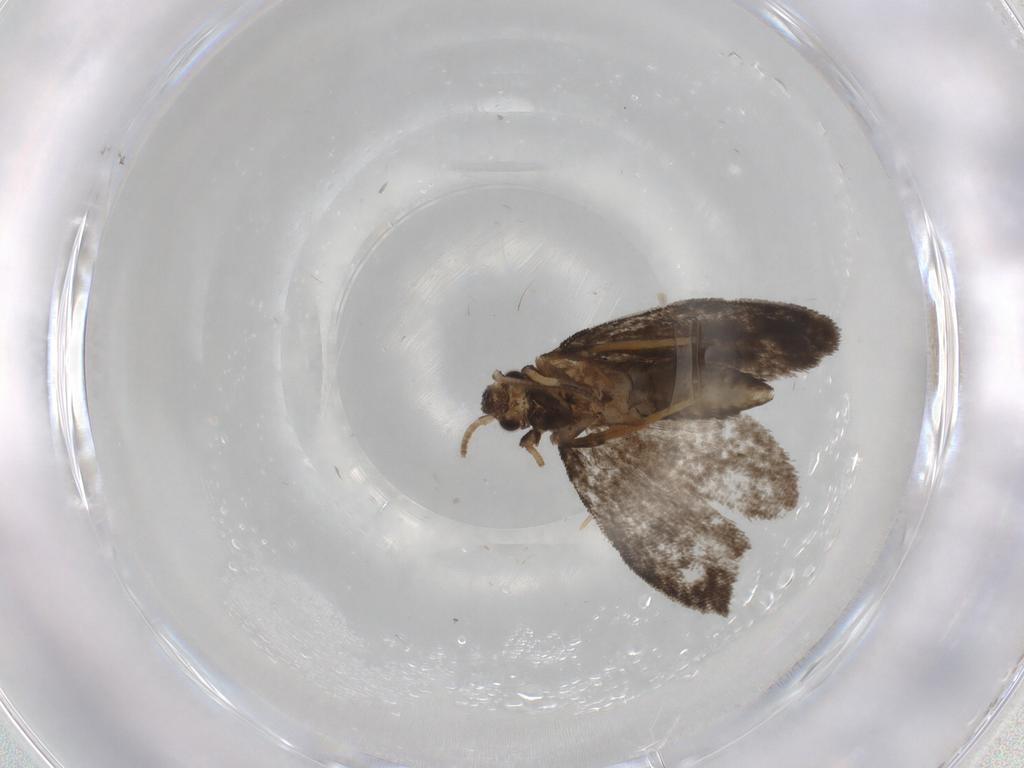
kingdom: Animalia
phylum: Arthropoda
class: Insecta
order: Lepidoptera
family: Psychidae
